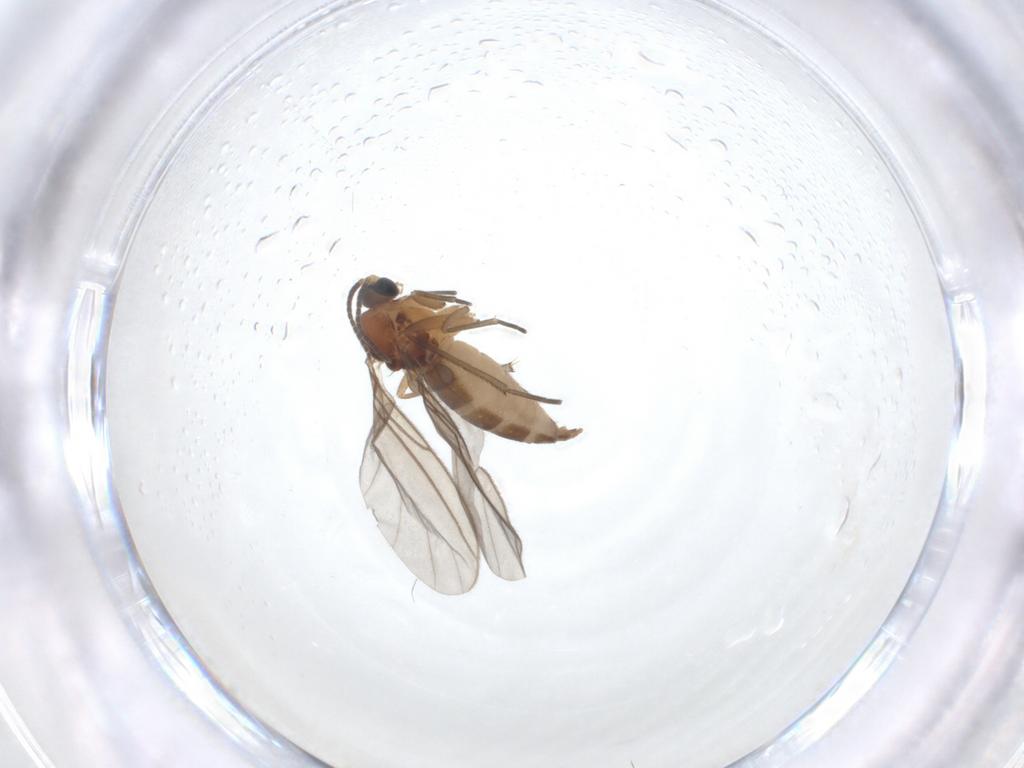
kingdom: Animalia
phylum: Arthropoda
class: Insecta
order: Diptera
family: Sciaridae
